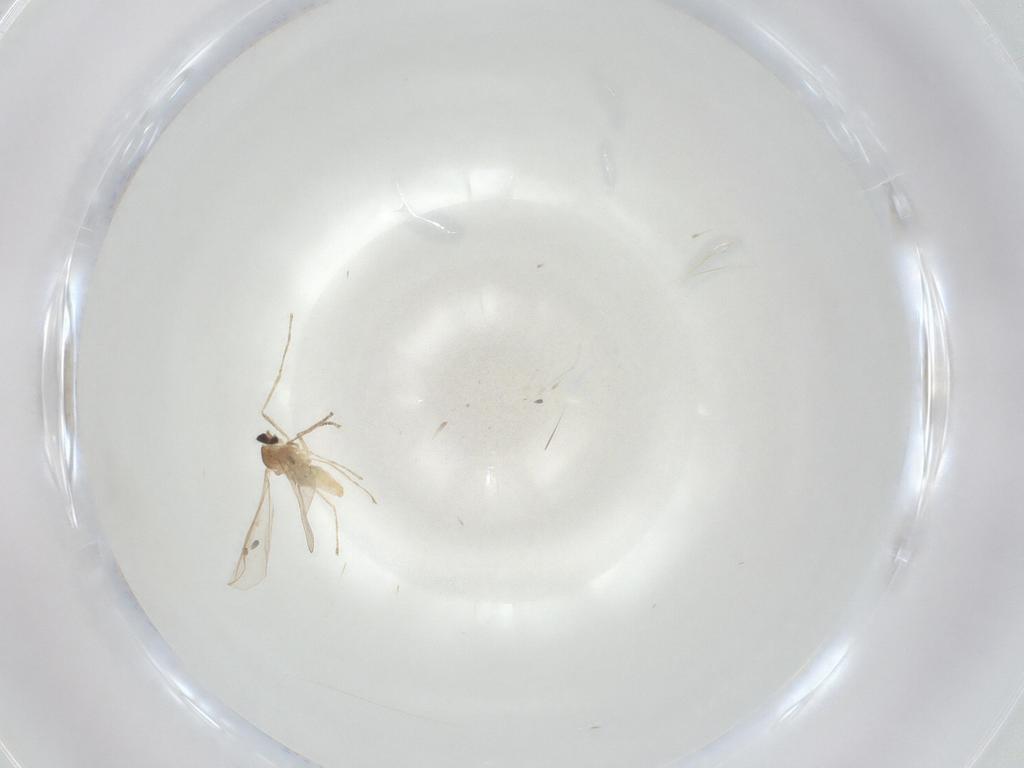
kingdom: Animalia
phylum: Arthropoda
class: Insecta
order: Diptera
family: Cecidomyiidae
